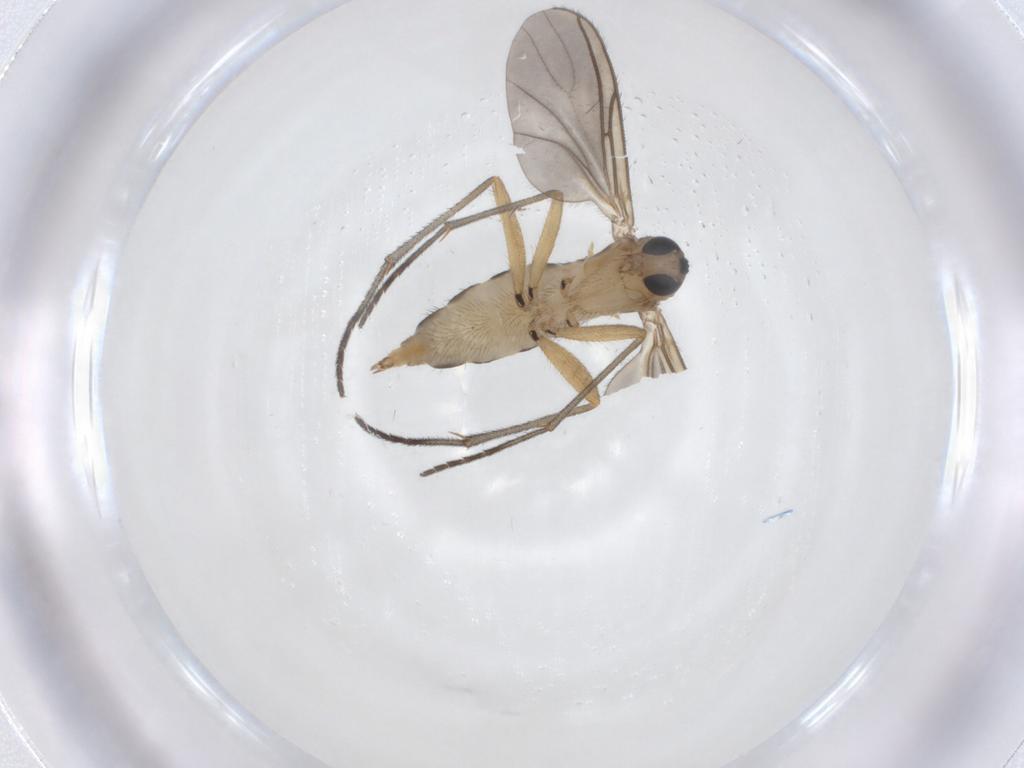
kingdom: Animalia
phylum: Arthropoda
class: Insecta
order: Diptera
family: Sciaridae
